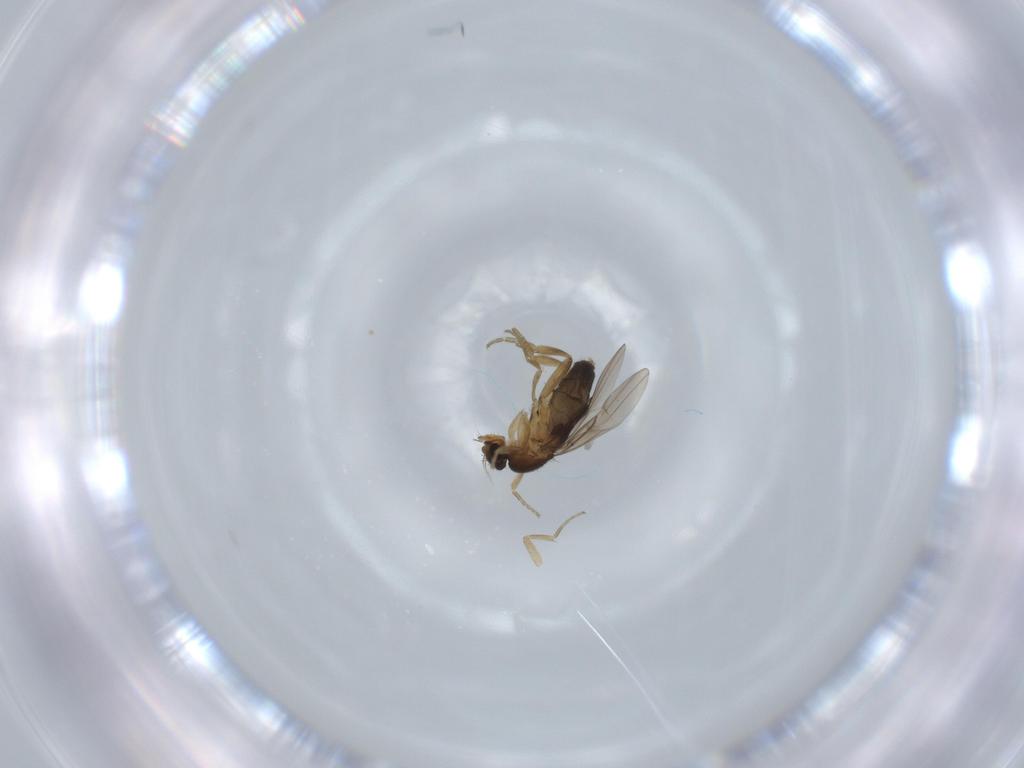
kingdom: Animalia
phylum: Arthropoda
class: Insecta
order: Diptera
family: Phoridae
